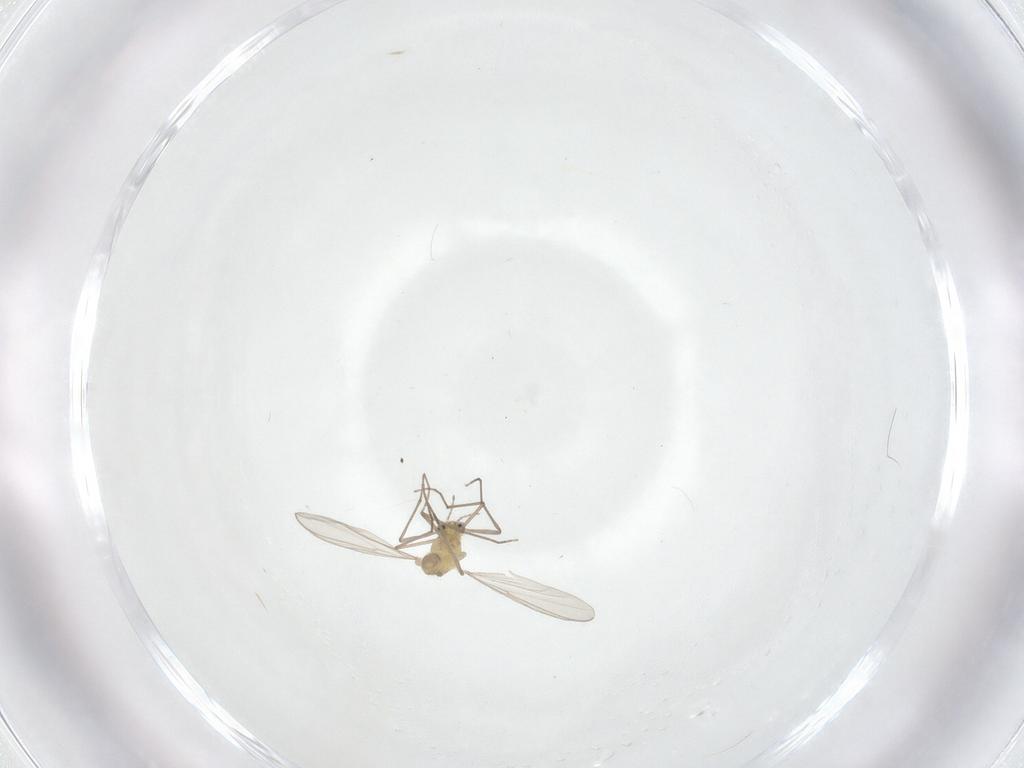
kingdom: Animalia
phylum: Arthropoda
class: Insecta
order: Diptera
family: Chironomidae
